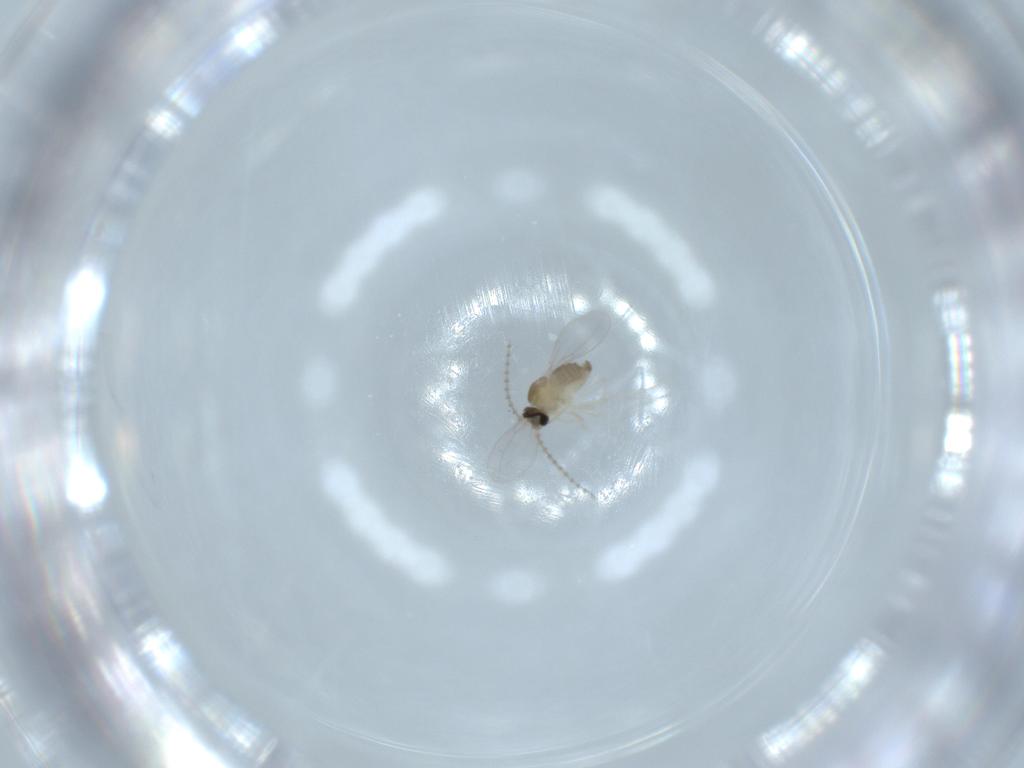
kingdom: Animalia
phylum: Arthropoda
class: Insecta
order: Diptera
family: Cecidomyiidae
